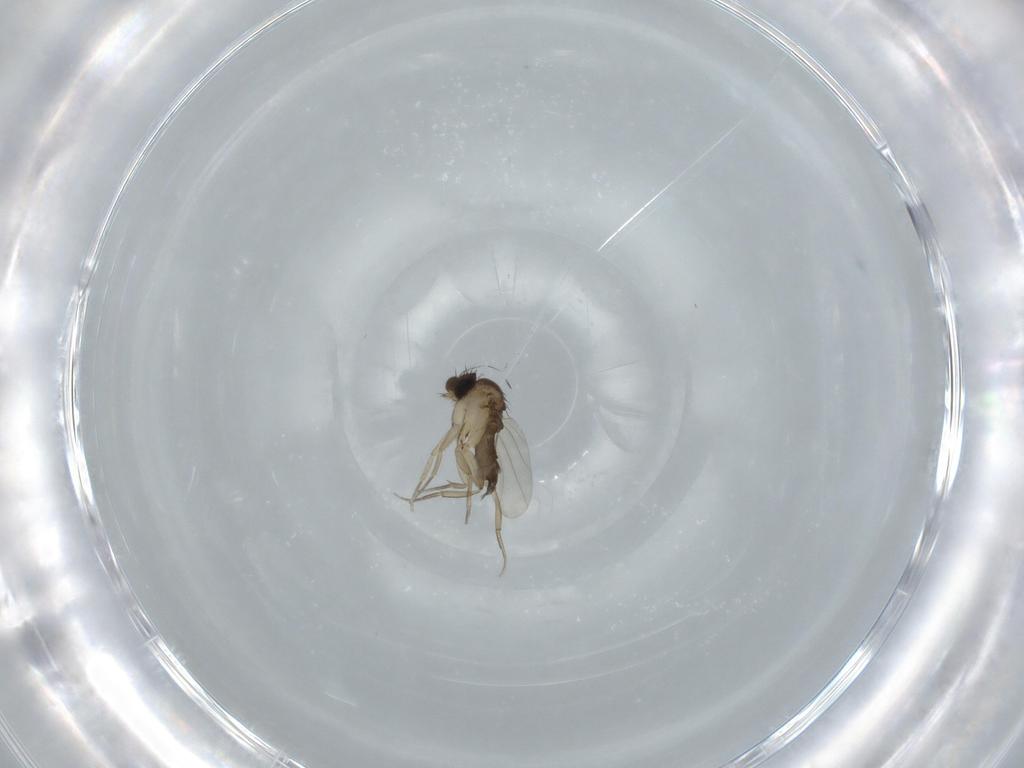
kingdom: Animalia
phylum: Arthropoda
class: Insecta
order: Diptera
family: Phoridae
